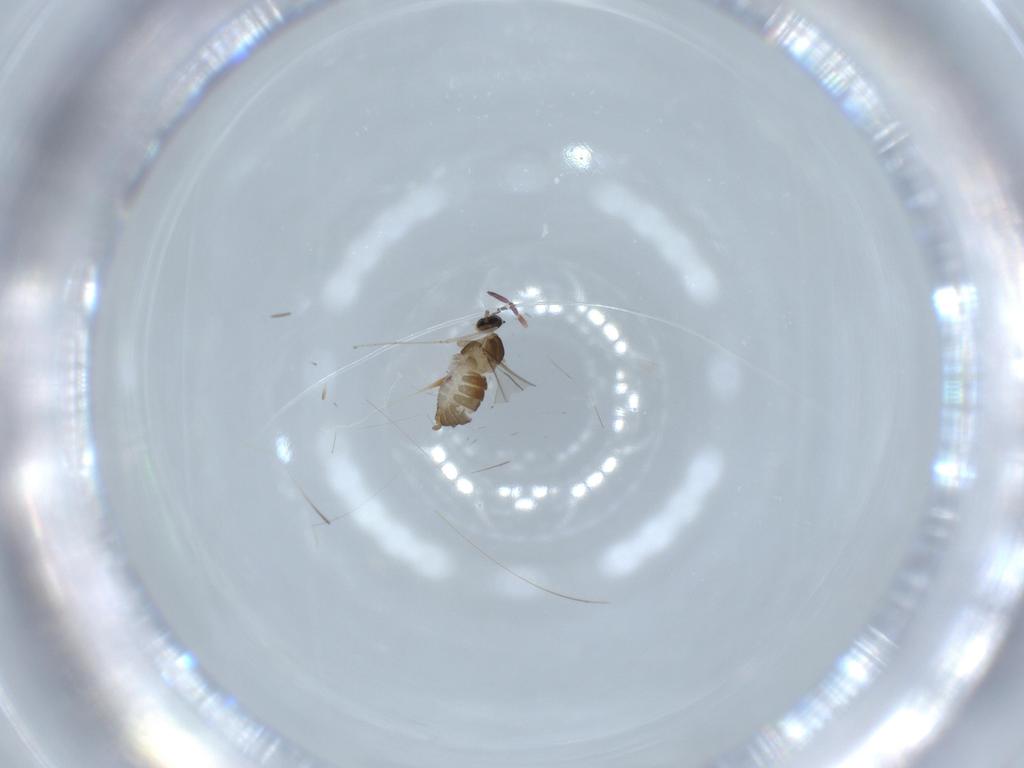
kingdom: Animalia
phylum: Arthropoda
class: Insecta
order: Diptera
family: Cecidomyiidae
